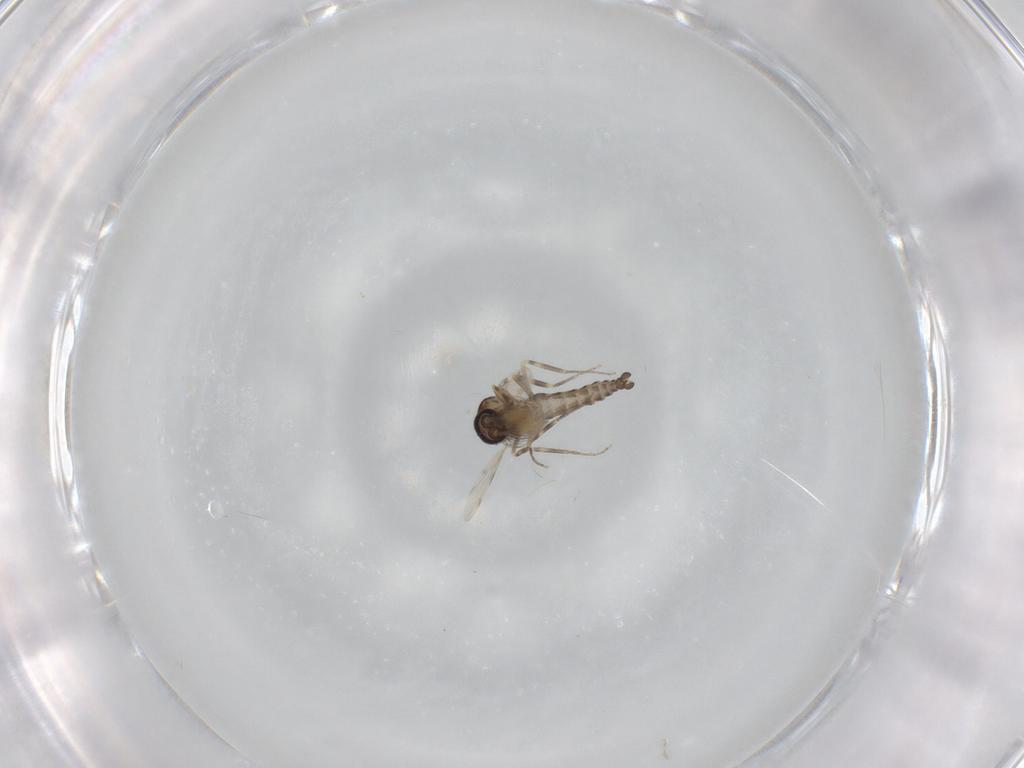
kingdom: Animalia
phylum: Arthropoda
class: Insecta
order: Diptera
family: Ceratopogonidae
